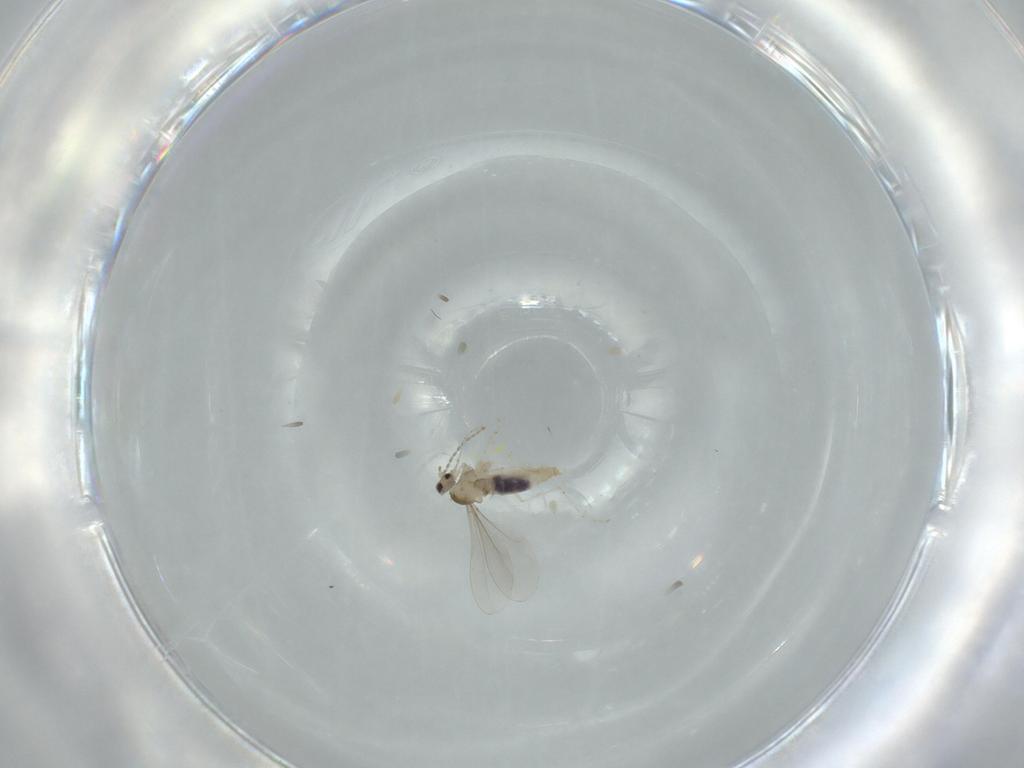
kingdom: Animalia
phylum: Arthropoda
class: Insecta
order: Diptera
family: Cecidomyiidae
